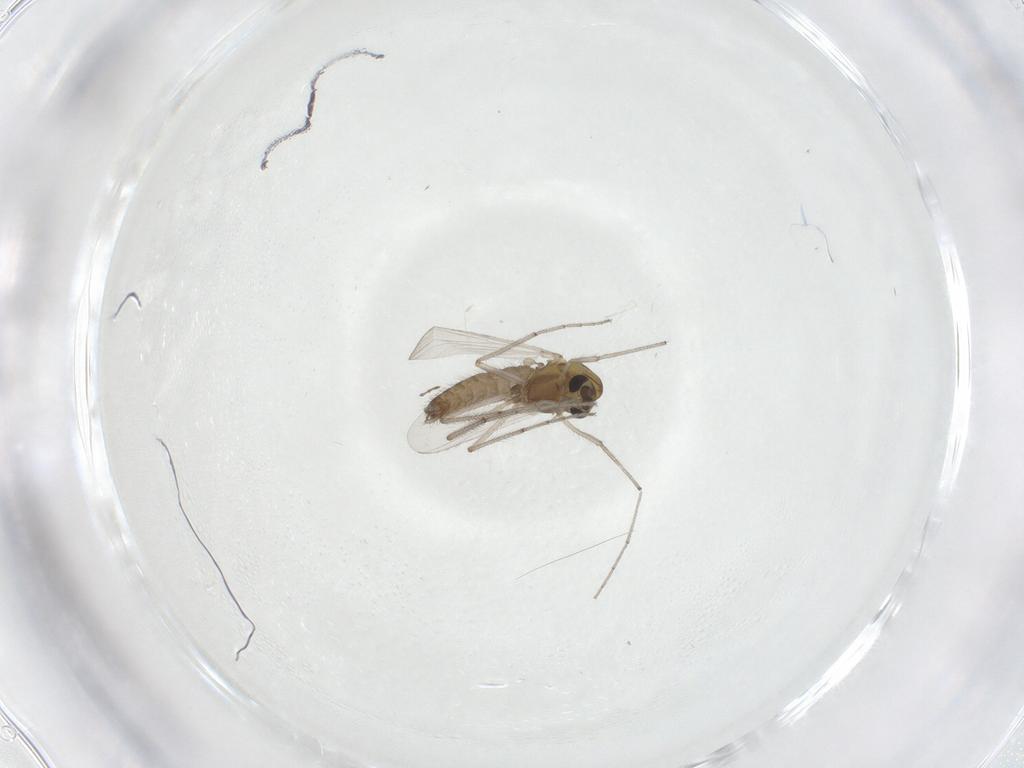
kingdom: Animalia
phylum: Arthropoda
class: Insecta
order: Diptera
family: Chironomidae
